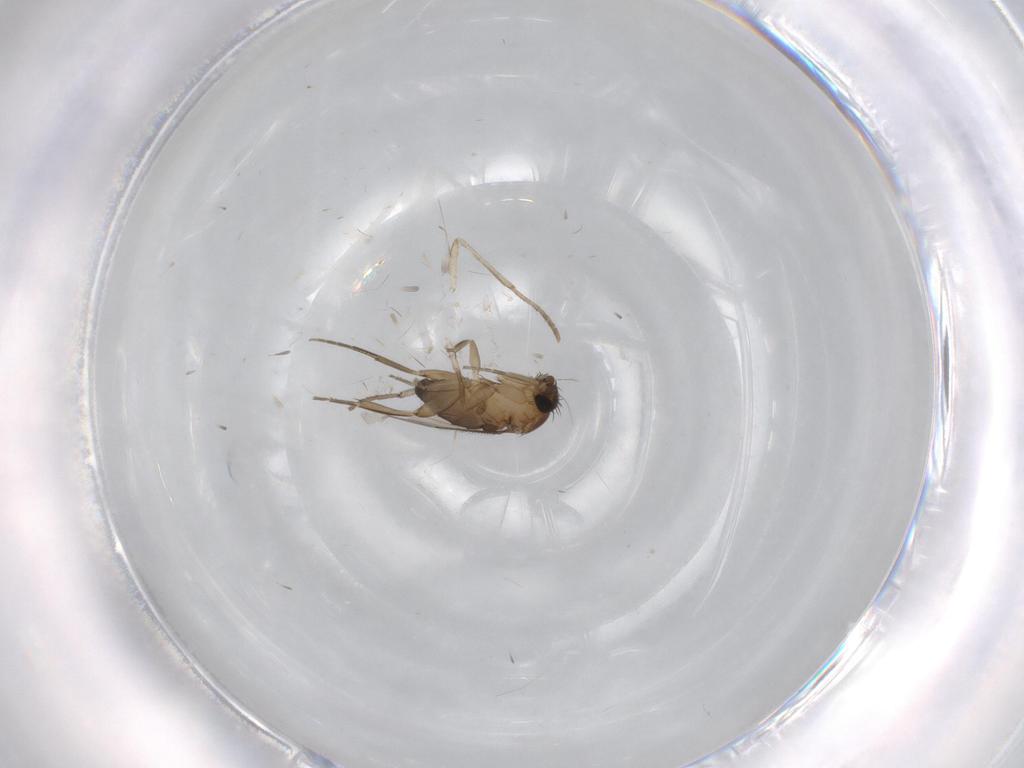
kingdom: Animalia
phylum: Arthropoda
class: Insecta
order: Diptera
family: Phoridae
